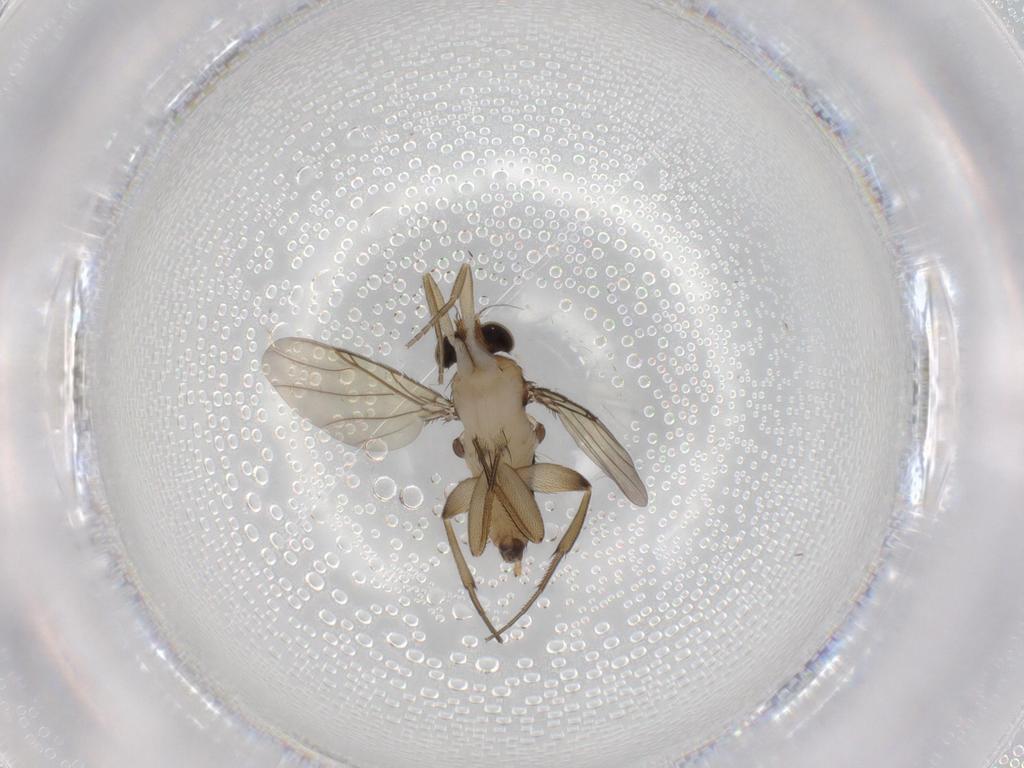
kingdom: Animalia
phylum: Arthropoda
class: Insecta
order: Diptera
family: Phoridae
